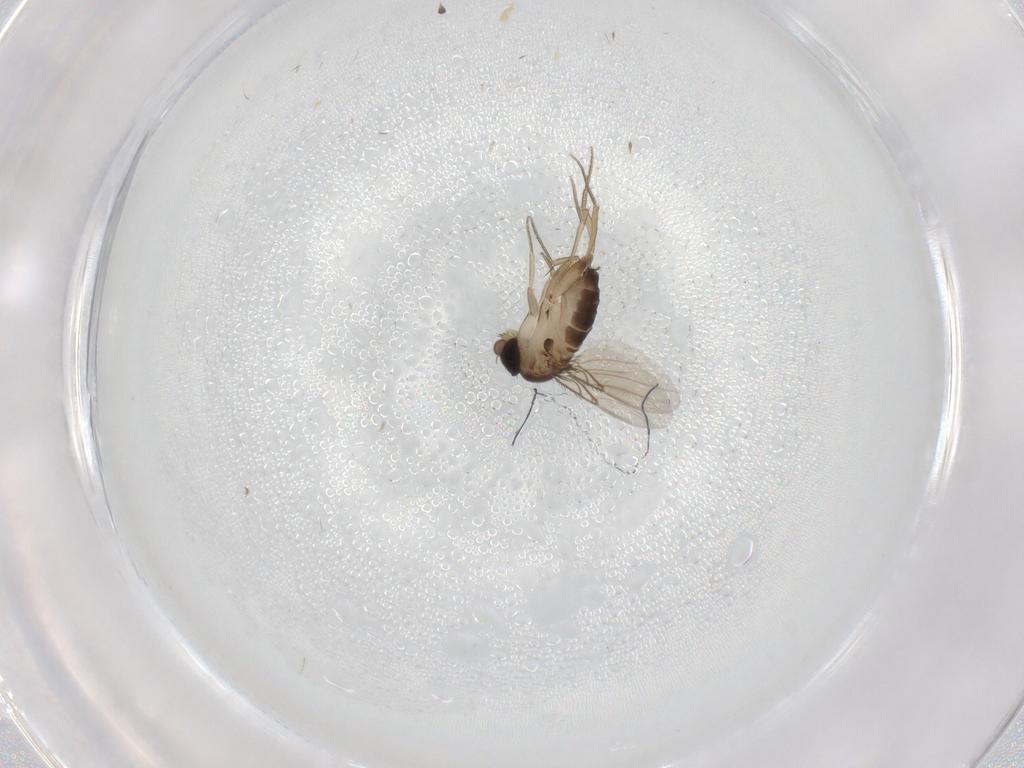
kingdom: Animalia
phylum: Arthropoda
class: Insecta
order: Diptera
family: Phoridae
